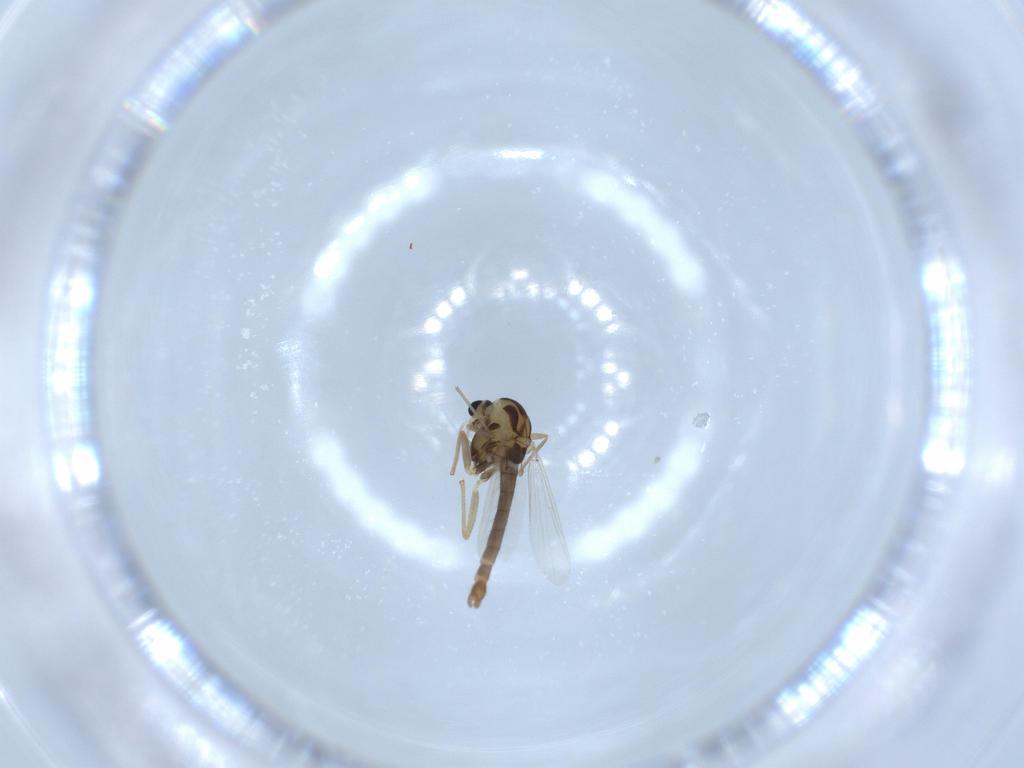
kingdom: Animalia
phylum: Arthropoda
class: Insecta
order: Diptera
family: Chironomidae
